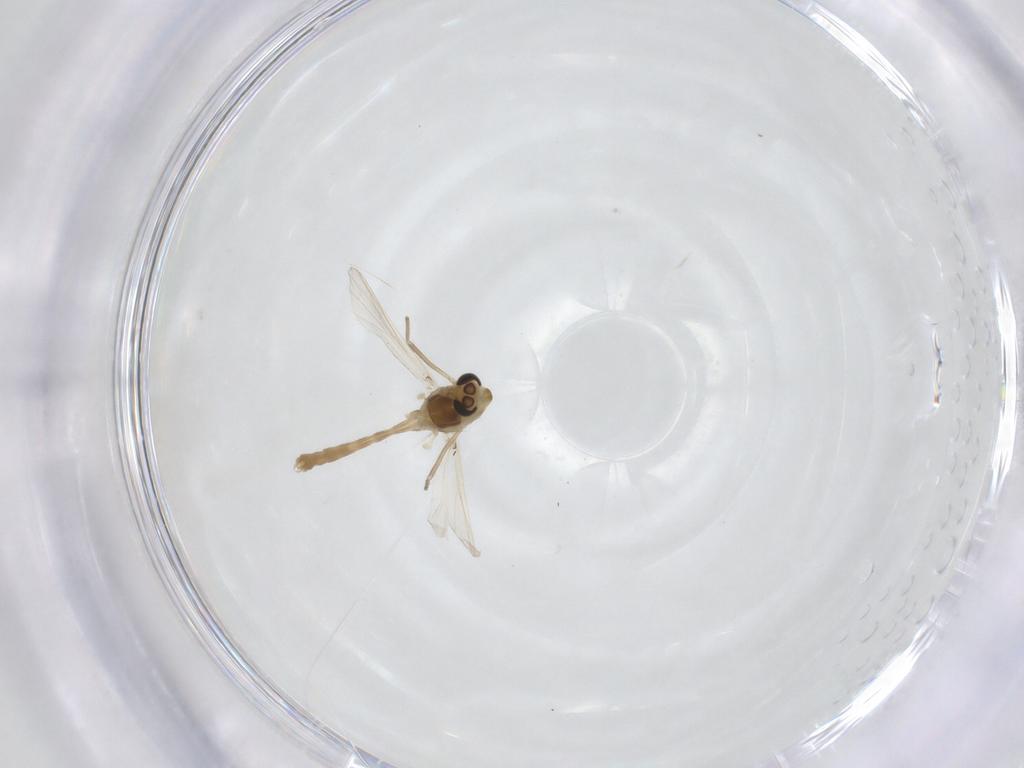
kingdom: Animalia
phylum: Arthropoda
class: Insecta
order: Diptera
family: Chironomidae
